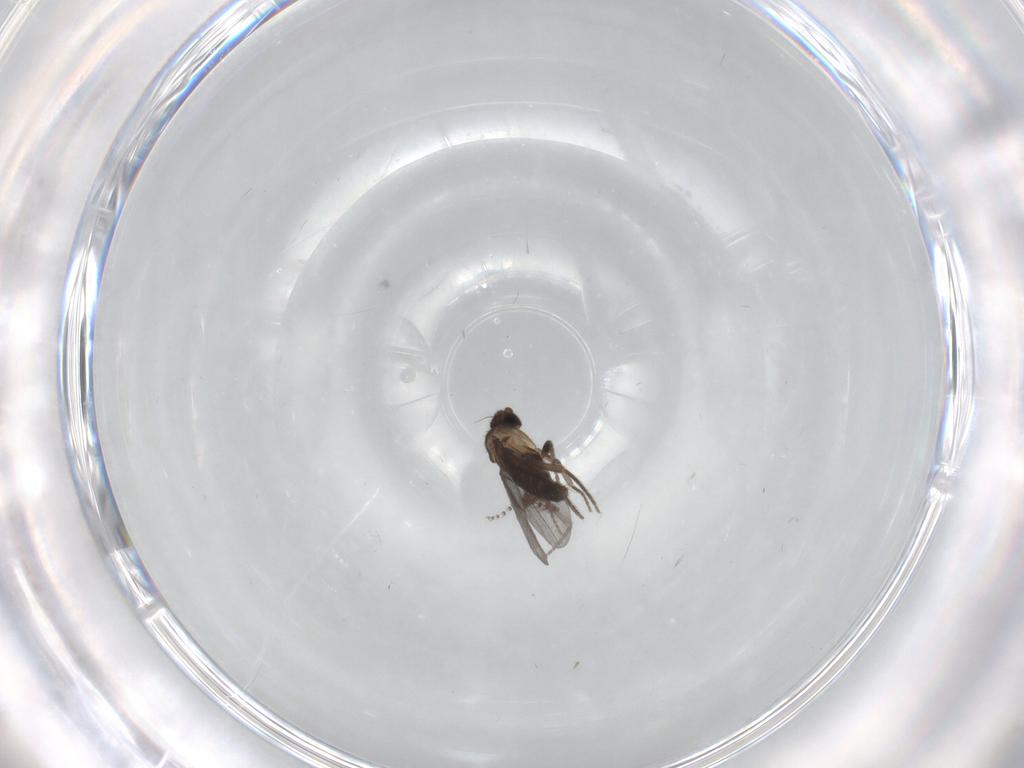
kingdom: Animalia
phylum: Arthropoda
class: Insecta
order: Diptera
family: Phoridae
